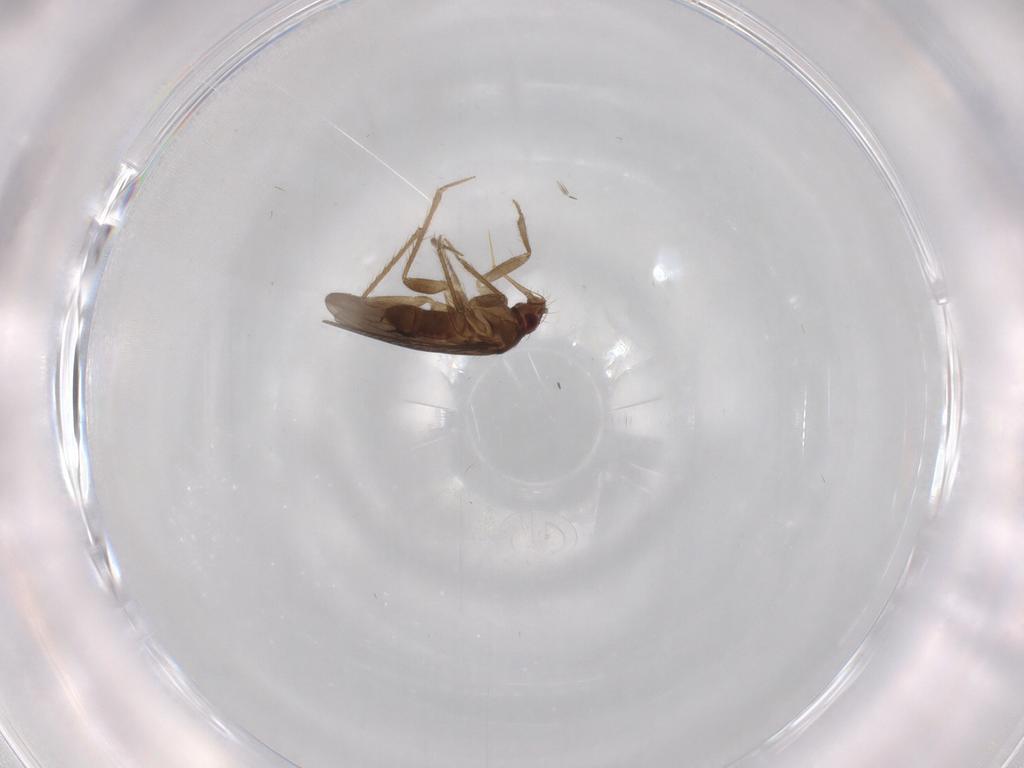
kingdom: Animalia
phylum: Arthropoda
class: Insecta
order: Hemiptera
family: Ceratocombidae
